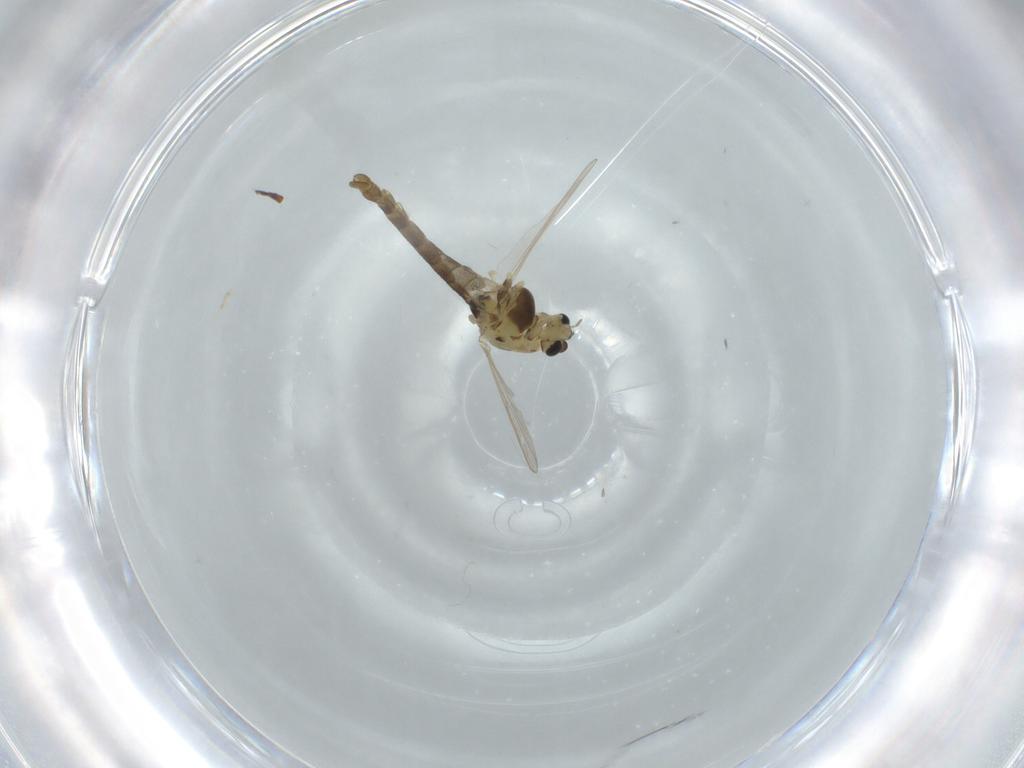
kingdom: Animalia
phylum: Arthropoda
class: Insecta
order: Diptera
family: Chironomidae
